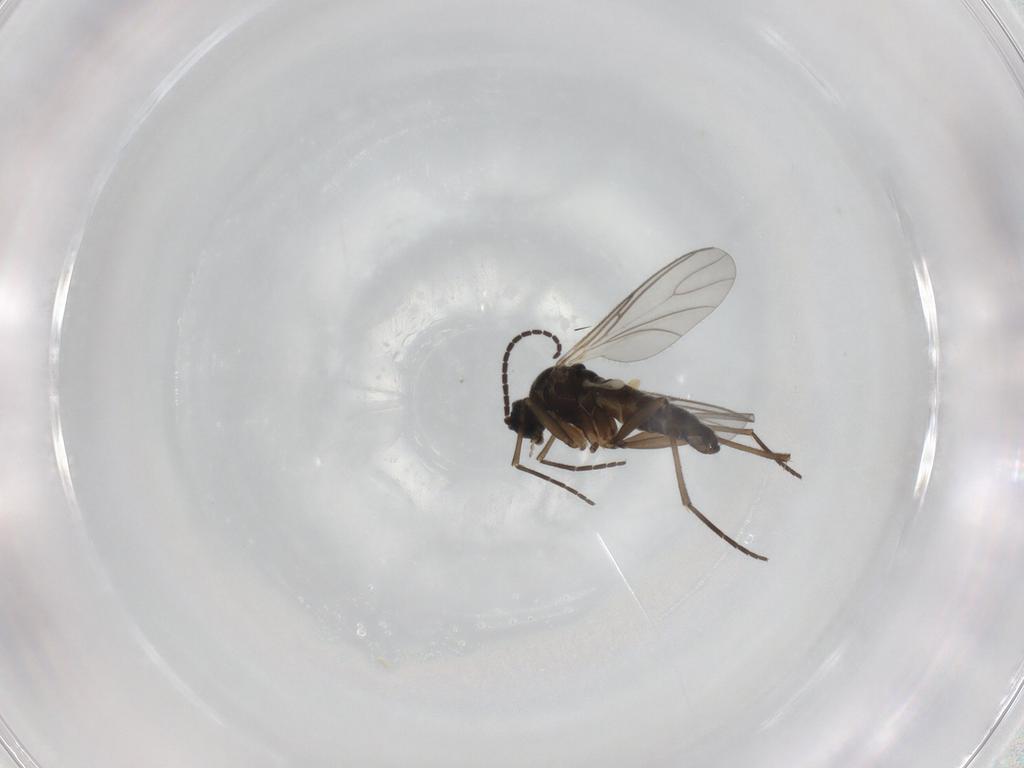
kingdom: Animalia
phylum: Arthropoda
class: Insecta
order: Diptera
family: Sciaridae
